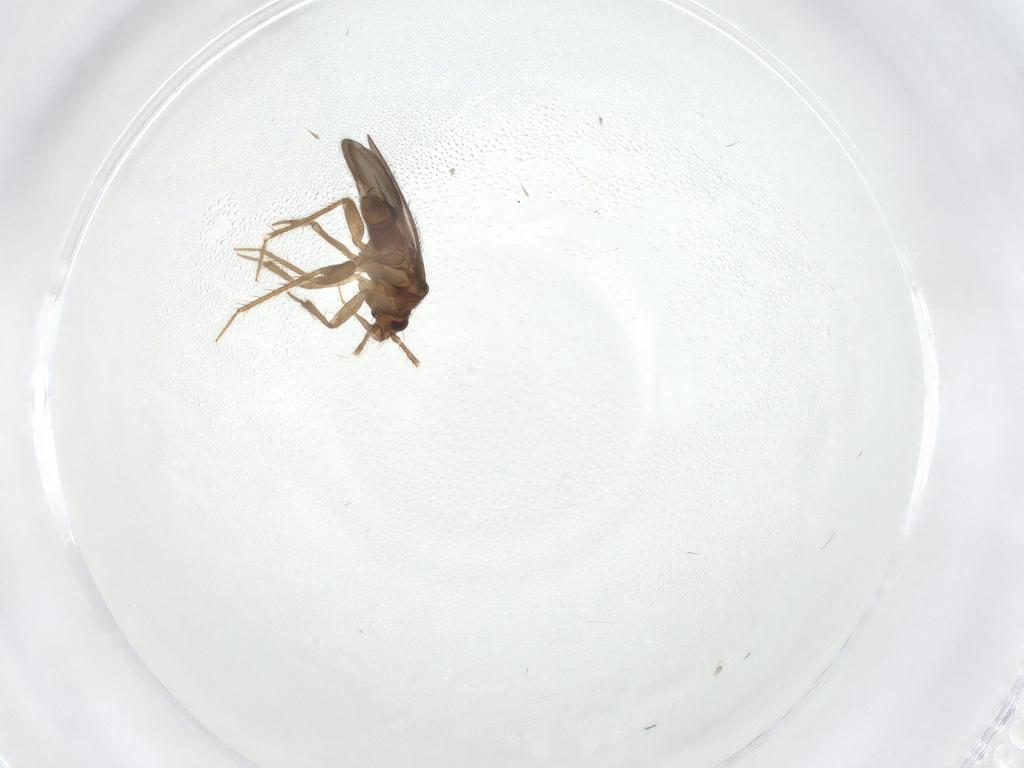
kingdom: Animalia
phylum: Arthropoda
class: Insecta
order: Hemiptera
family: Ceratocombidae
